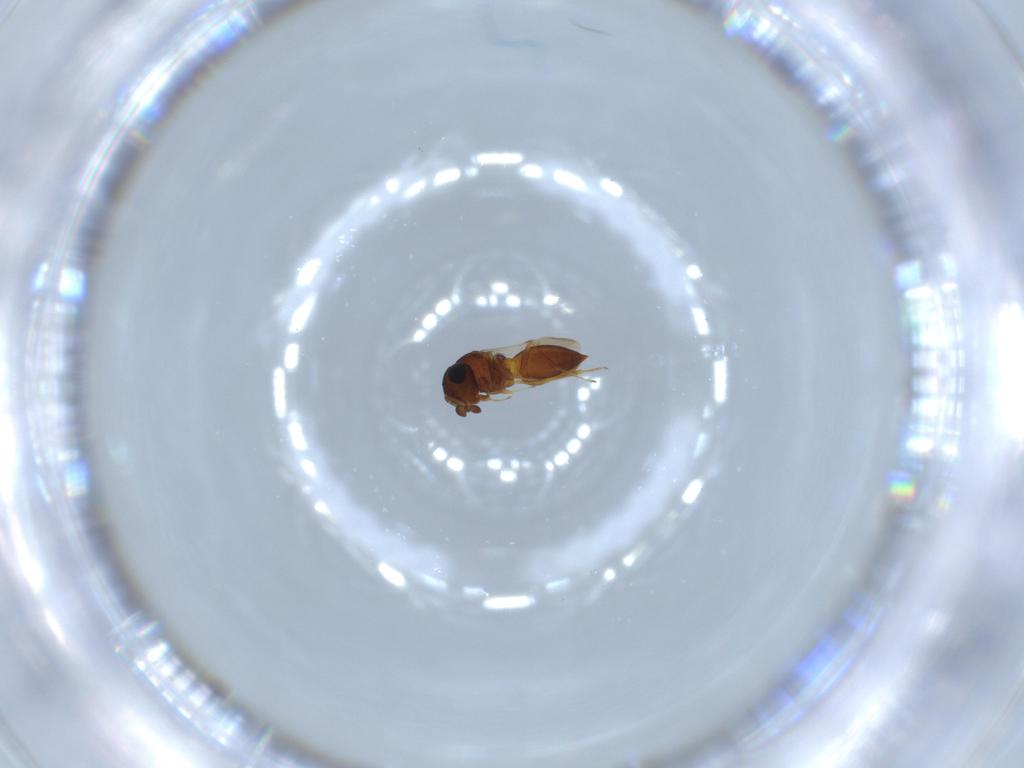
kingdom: Animalia
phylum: Arthropoda
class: Insecta
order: Hymenoptera
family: Scelionidae
